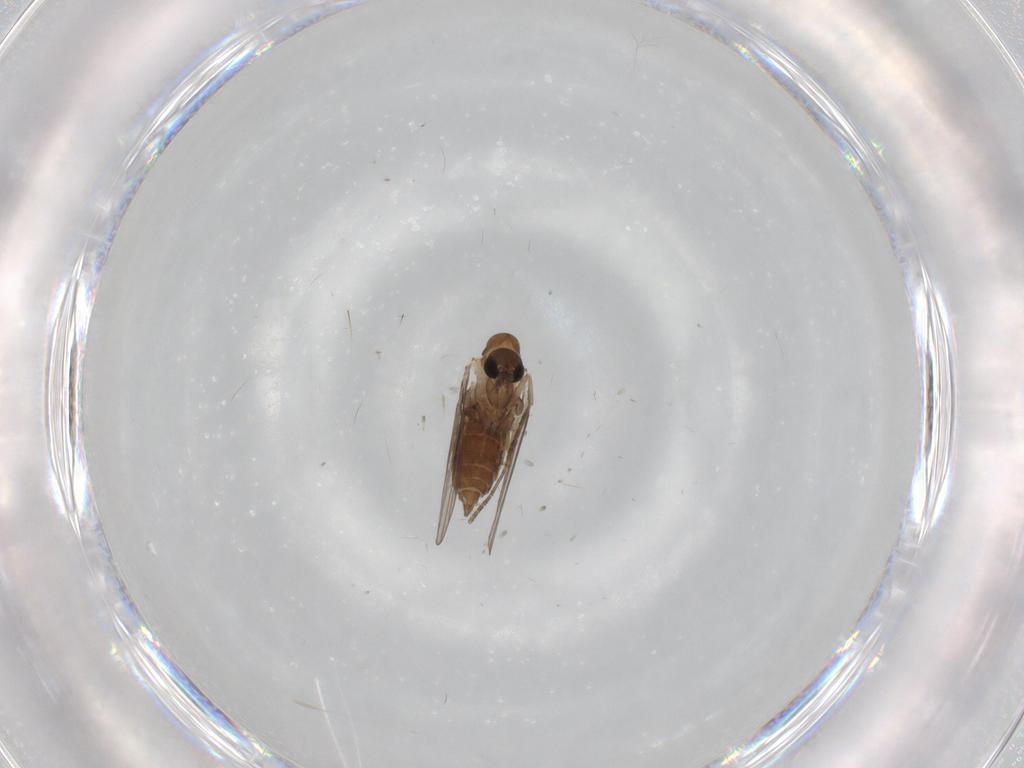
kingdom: Animalia
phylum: Arthropoda
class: Insecta
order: Diptera
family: Psychodidae
